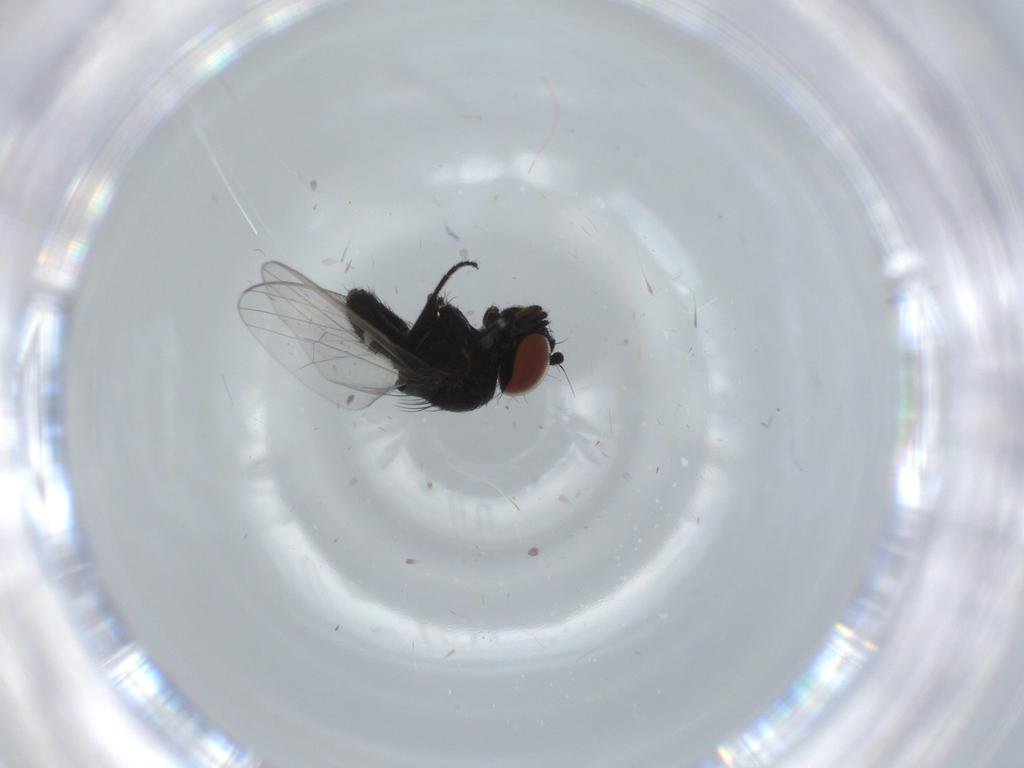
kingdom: Animalia
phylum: Arthropoda
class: Insecta
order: Diptera
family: Milichiidae
